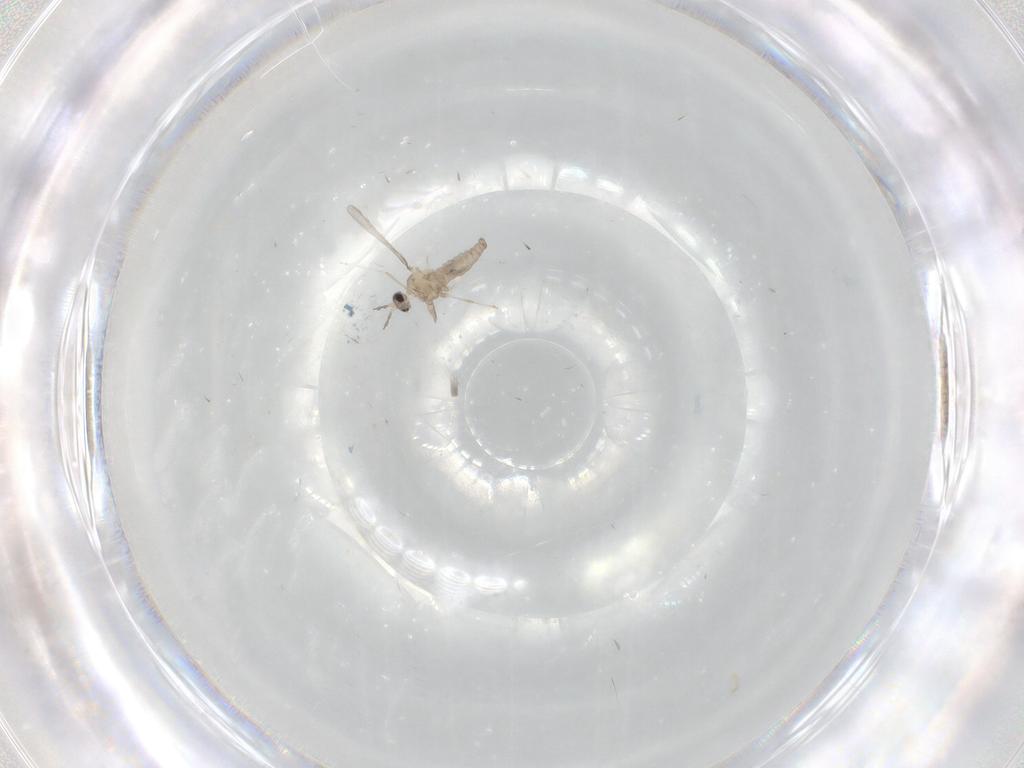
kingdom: Animalia
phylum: Arthropoda
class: Insecta
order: Diptera
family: Cecidomyiidae
